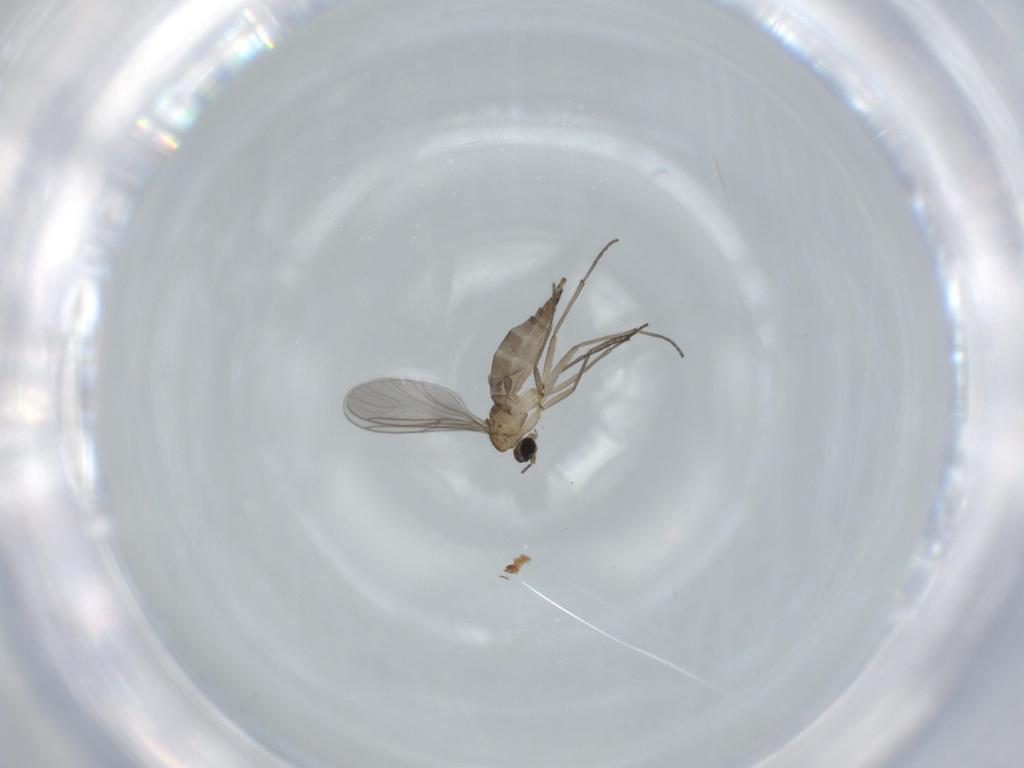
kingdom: Animalia
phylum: Arthropoda
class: Insecta
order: Diptera
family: Sciaridae
